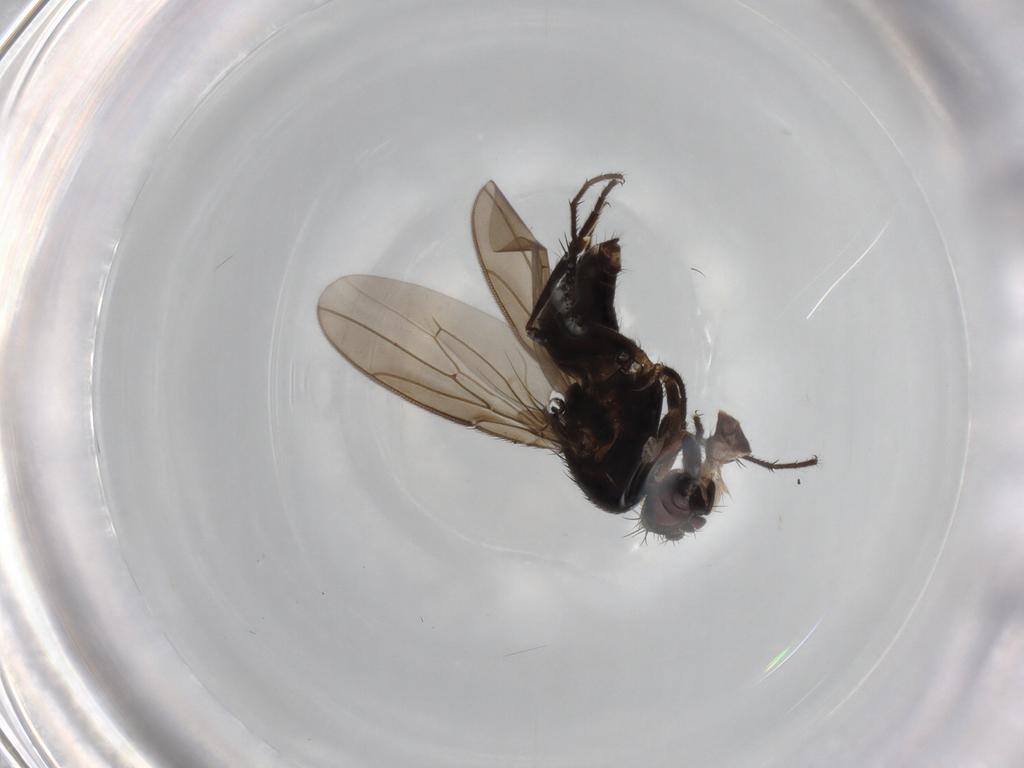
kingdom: Animalia
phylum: Arthropoda
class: Insecta
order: Diptera
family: Sphaeroceridae
